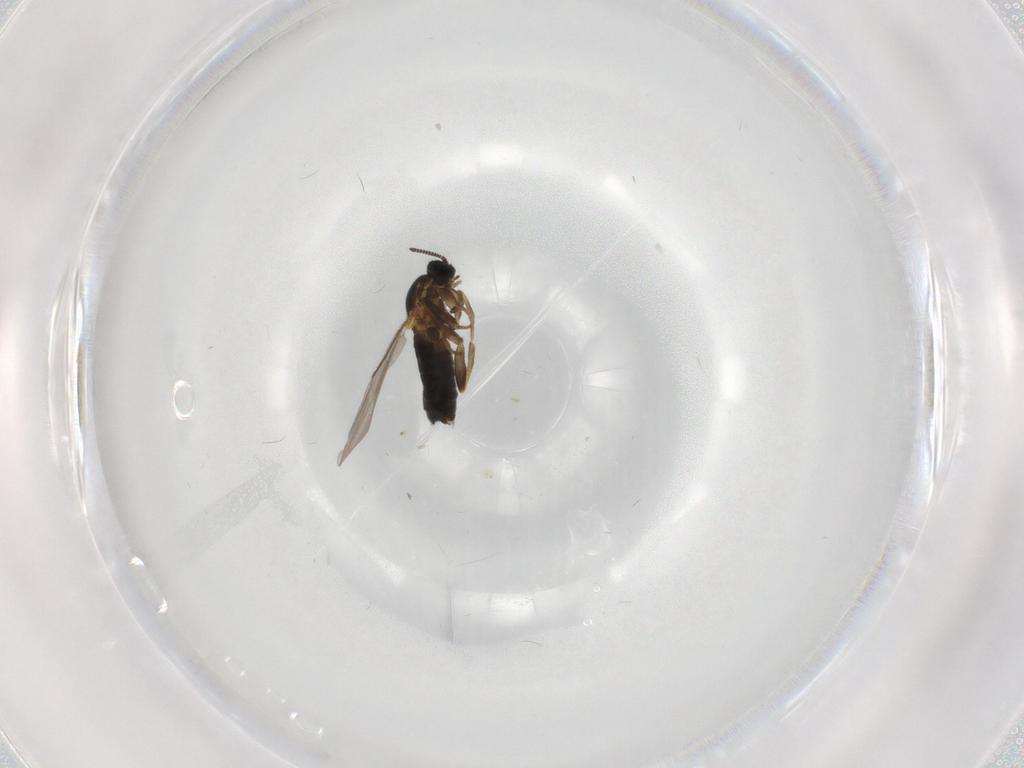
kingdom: Animalia
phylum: Arthropoda
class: Insecta
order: Diptera
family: Scatopsidae
